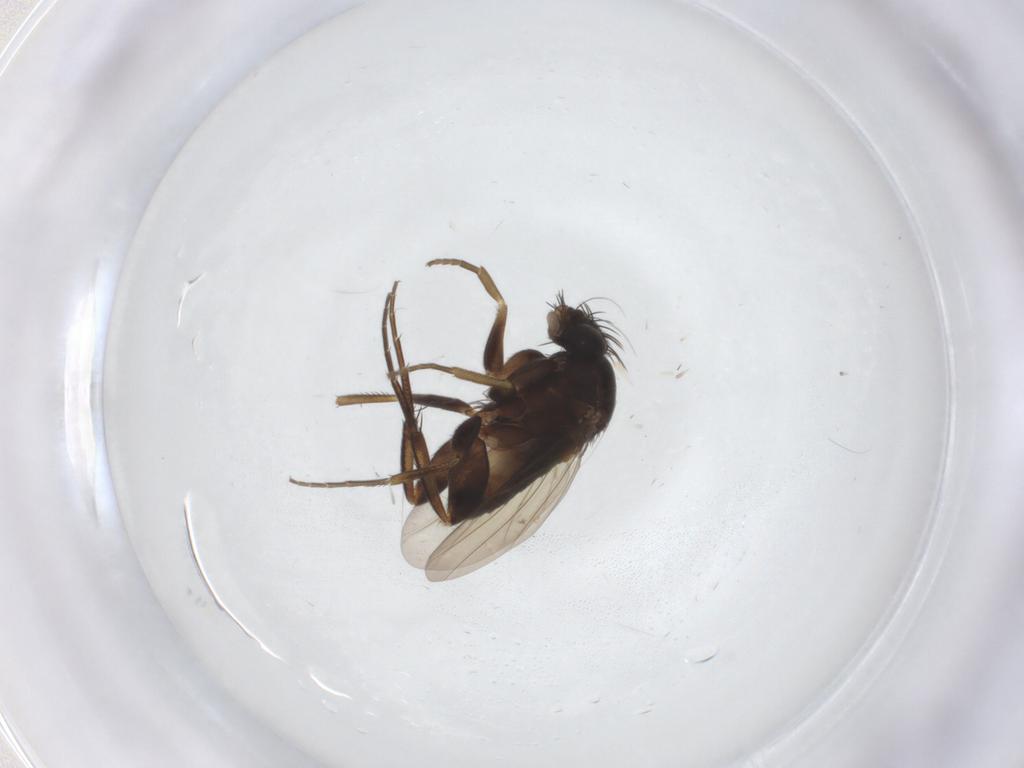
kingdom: Animalia
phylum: Arthropoda
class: Insecta
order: Diptera
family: Phoridae
